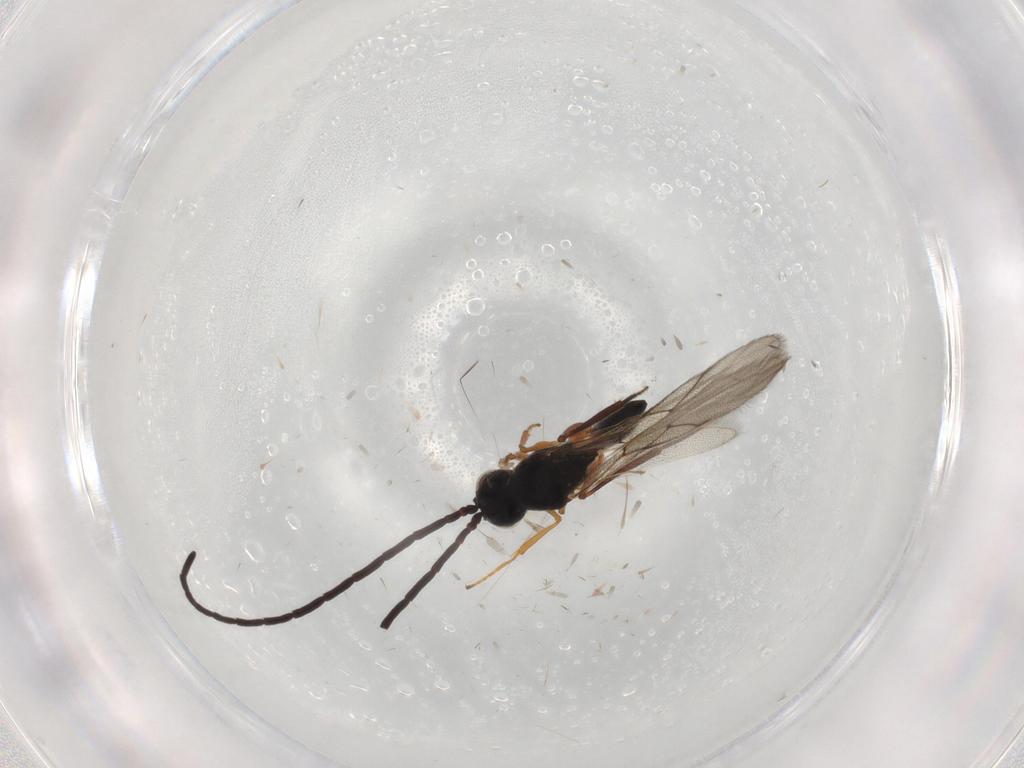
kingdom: Animalia
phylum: Arthropoda
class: Insecta
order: Hymenoptera
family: Figitidae
